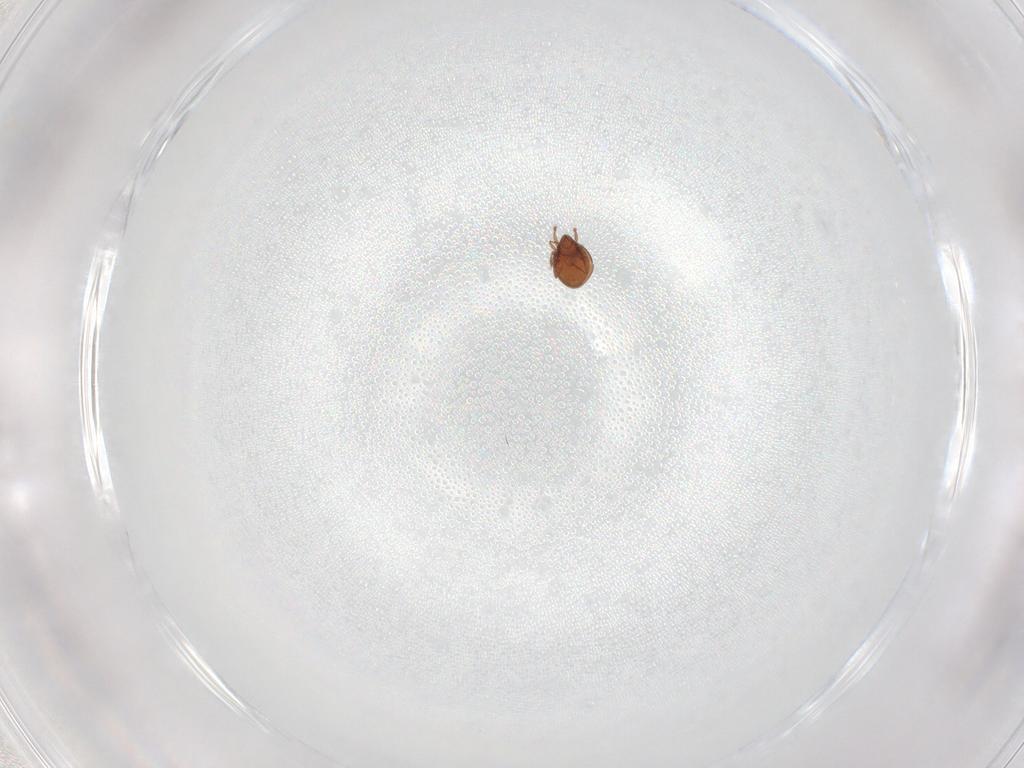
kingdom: Animalia
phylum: Arthropoda
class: Arachnida
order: Sarcoptiformes
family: Oribatulidae
